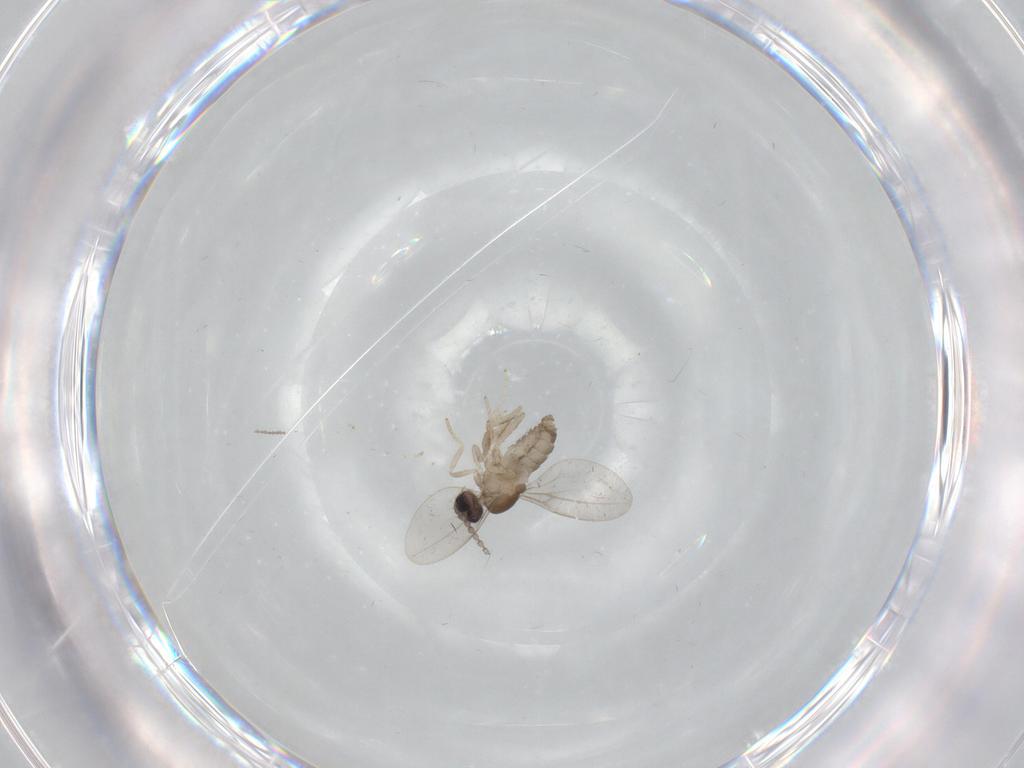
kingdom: Animalia
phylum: Arthropoda
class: Insecta
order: Diptera
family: Cecidomyiidae
